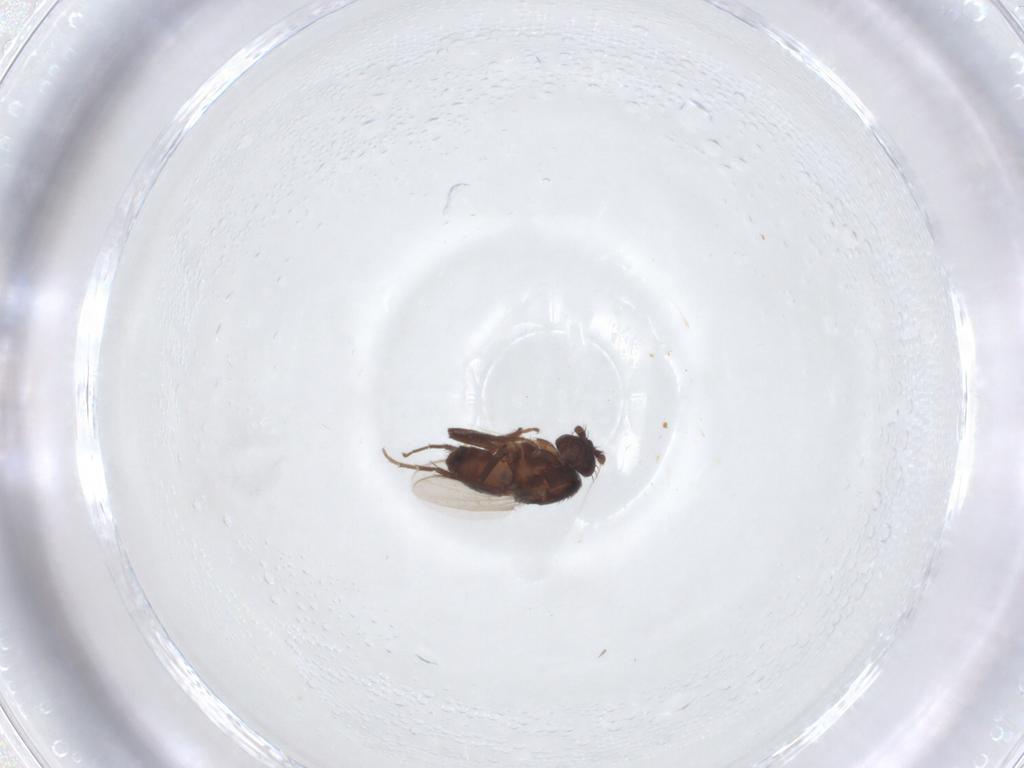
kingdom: Animalia
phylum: Arthropoda
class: Insecta
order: Diptera
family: Sphaeroceridae
